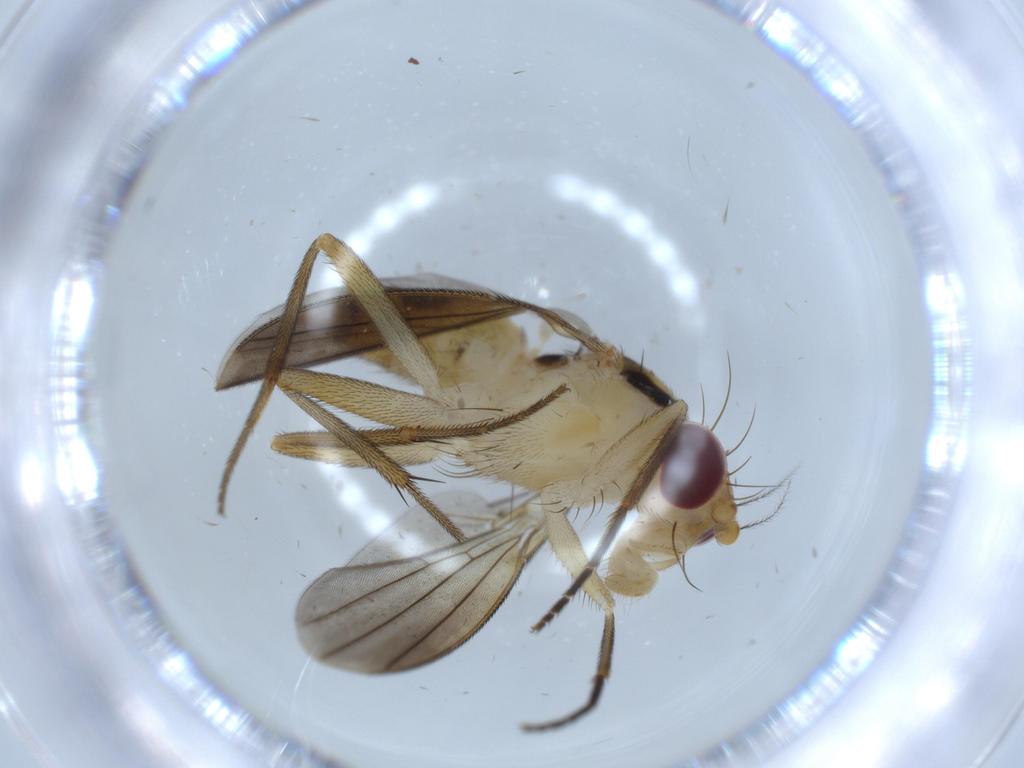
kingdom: Animalia
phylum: Arthropoda
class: Insecta
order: Diptera
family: Clusiidae
